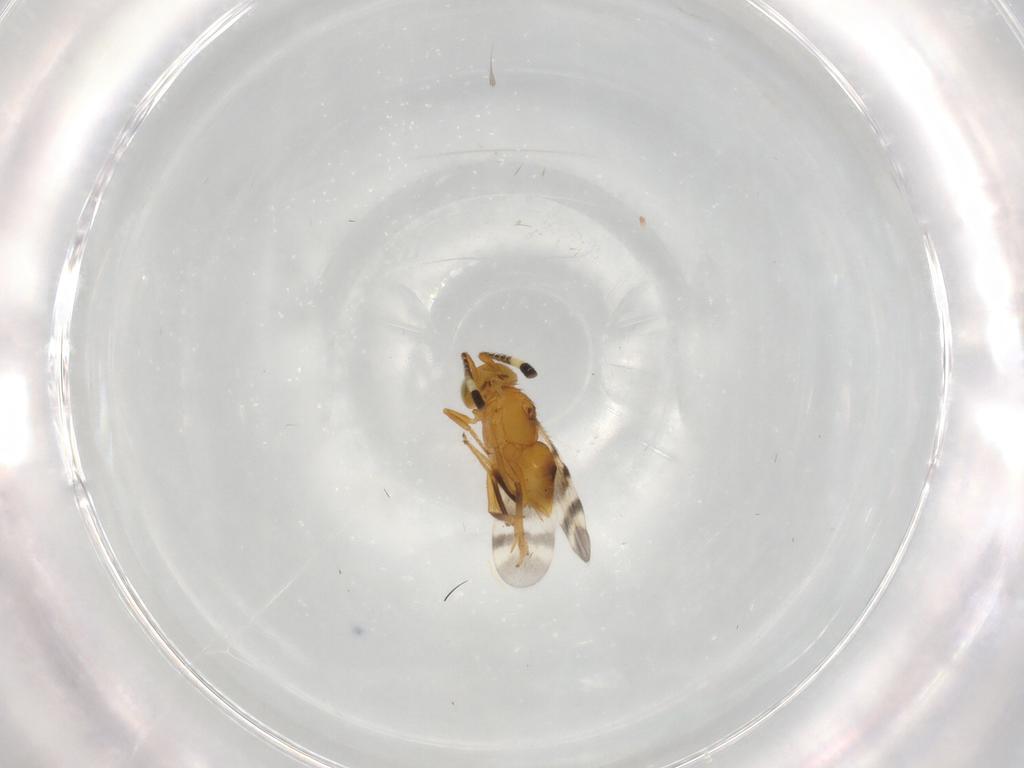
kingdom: Animalia
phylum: Arthropoda
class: Insecta
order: Hymenoptera
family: Encyrtidae
